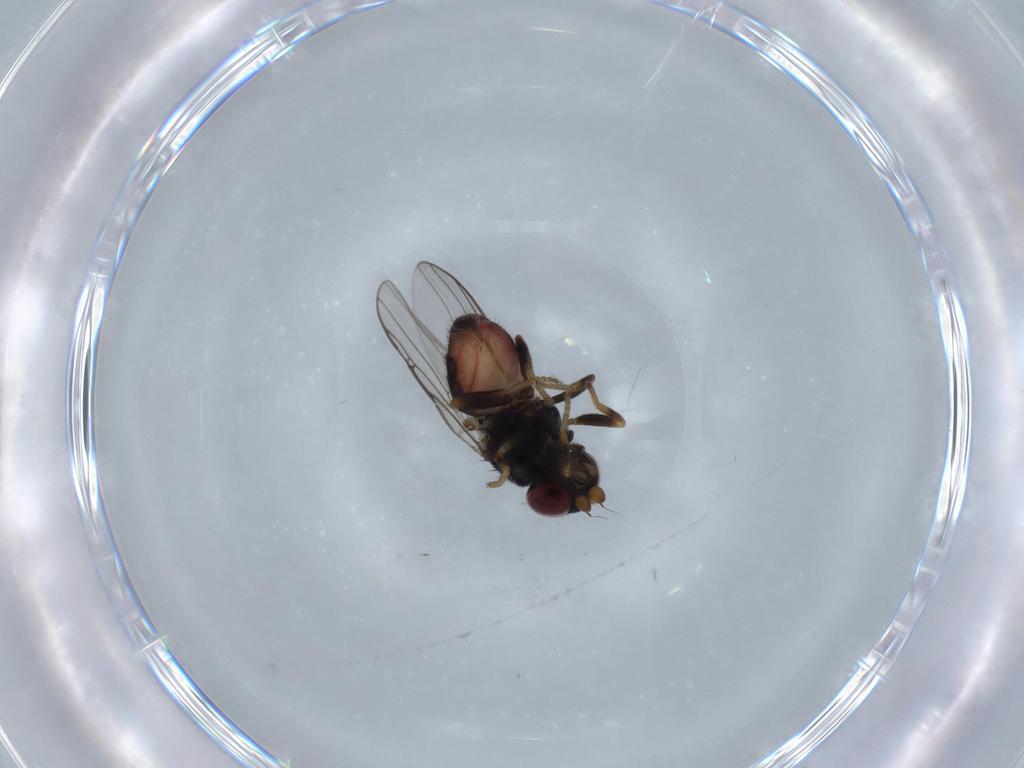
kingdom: Animalia
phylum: Arthropoda
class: Insecta
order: Diptera
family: Chloropidae
